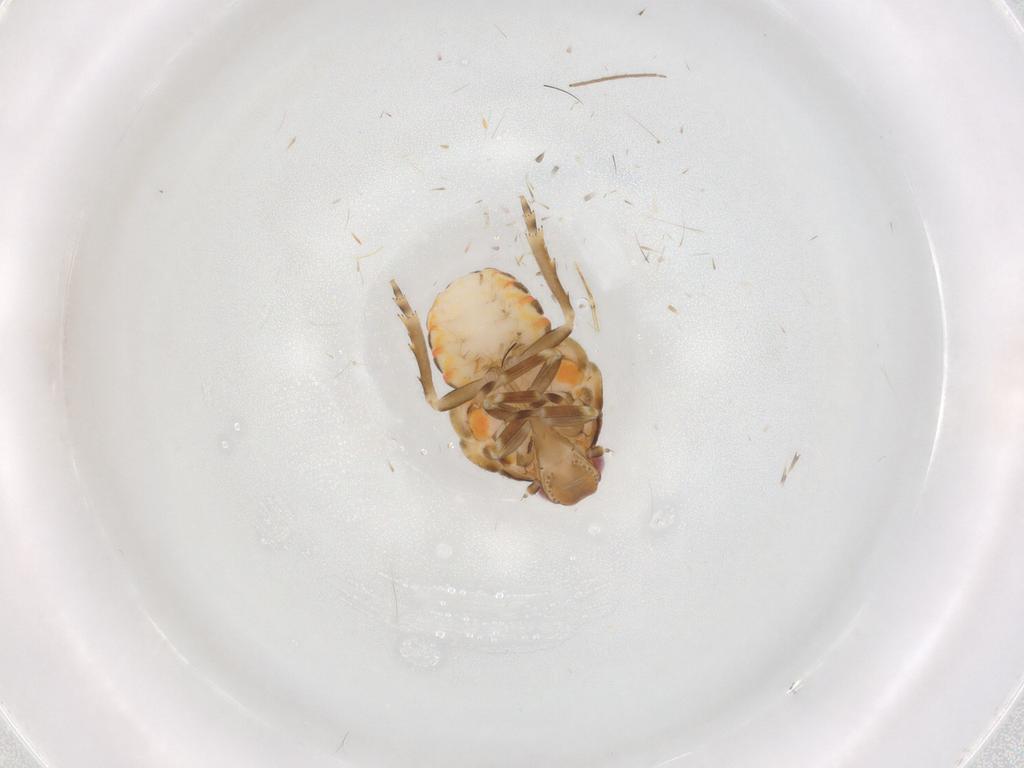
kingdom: Animalia
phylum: Arthropoda
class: Insecta
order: Hemiptera
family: Flatidae
